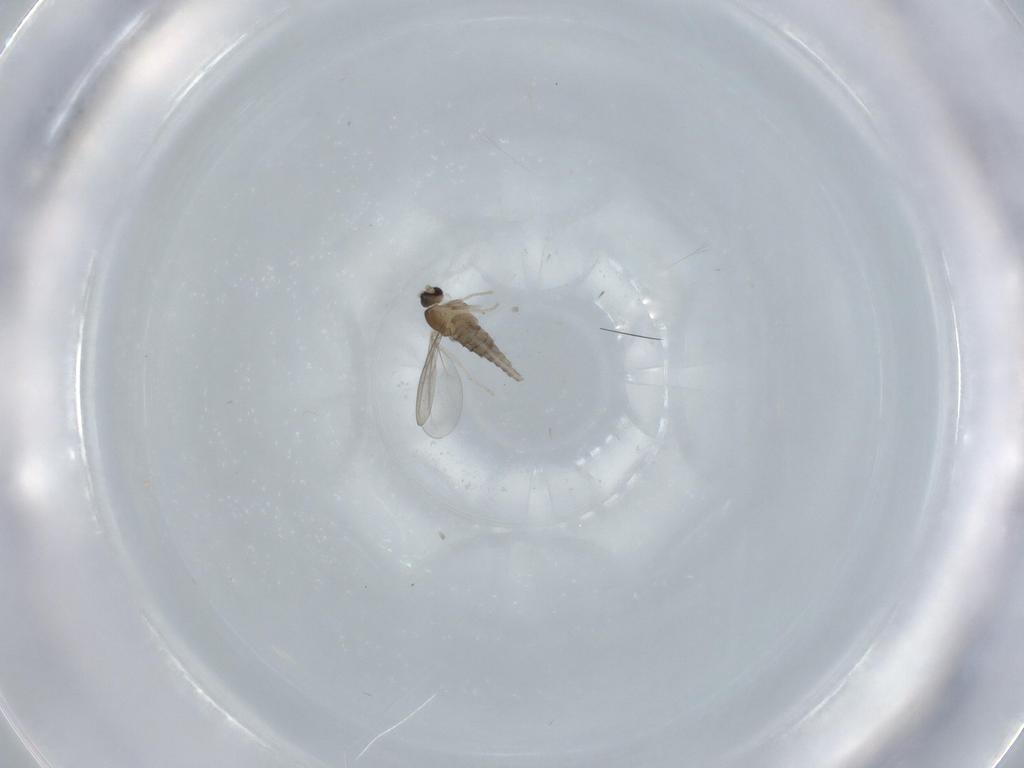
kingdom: Animalia
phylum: Arthropoda
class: Insecta
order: Diptera
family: Cecidomyiidae
